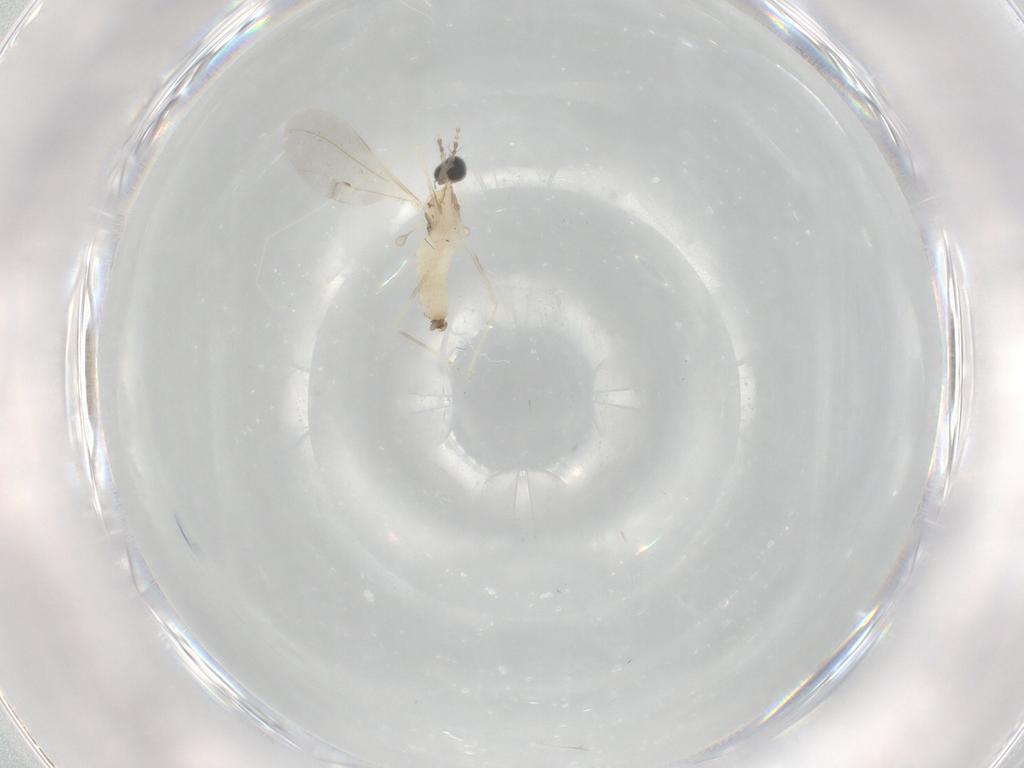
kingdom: Animalia
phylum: Arthropoda
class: Insecta
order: Diptera
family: Cecidomyiidae
